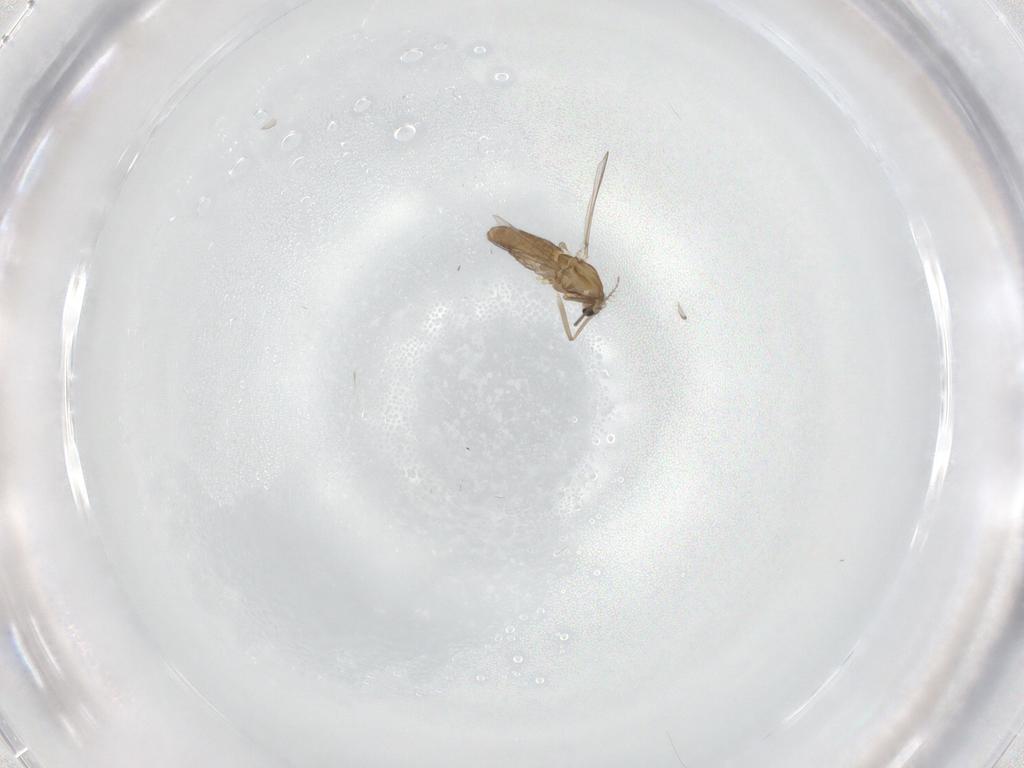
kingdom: Animalia
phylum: Arthropoda
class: Insecta
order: Diptera
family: Chironomidae
